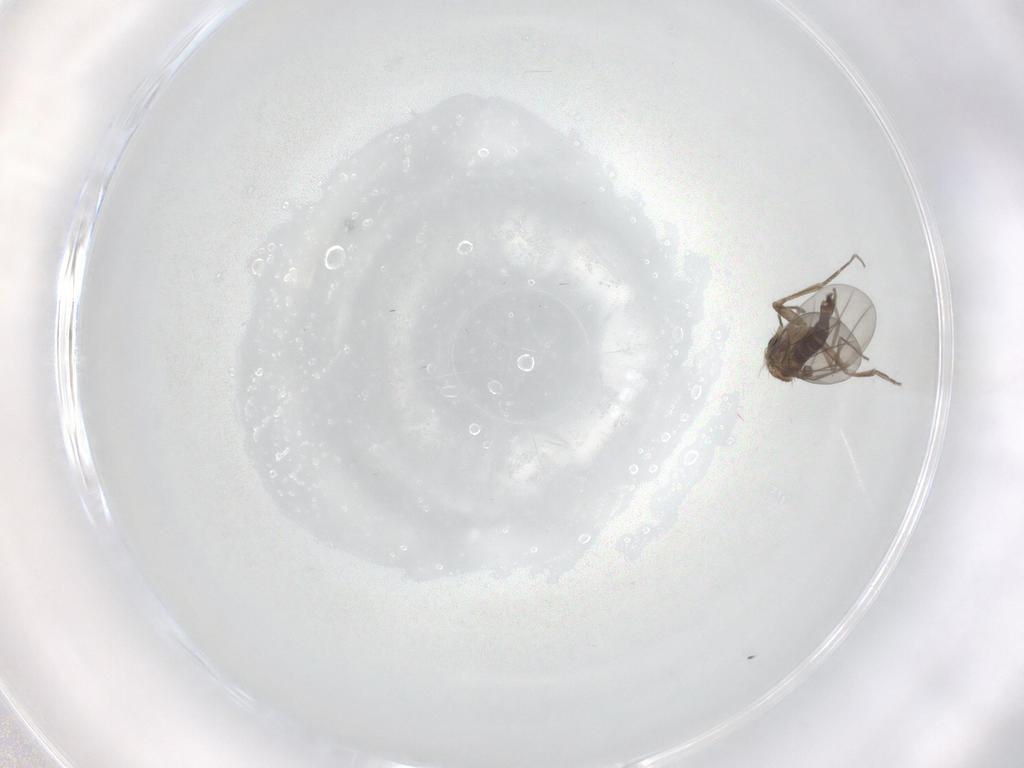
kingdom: Animalia
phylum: Arthropoda
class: Insecta
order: Diptera
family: Sciaridae
